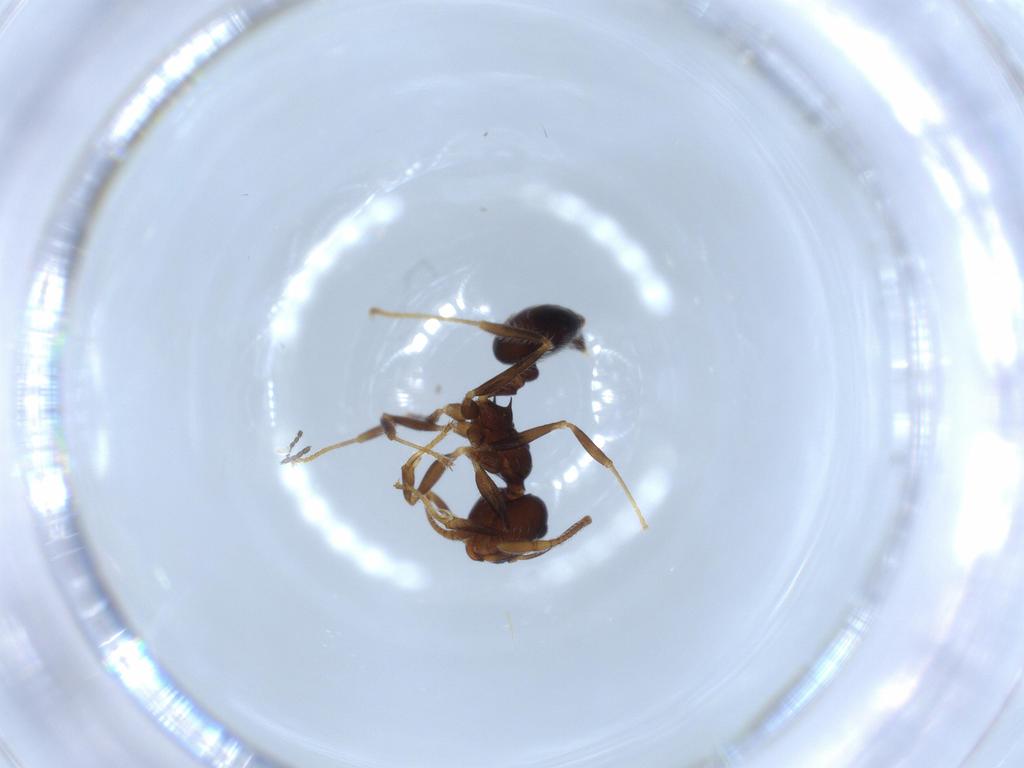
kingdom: Animalia
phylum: Arthropoda
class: Insecta
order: Hymenoptera
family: Formicidae
